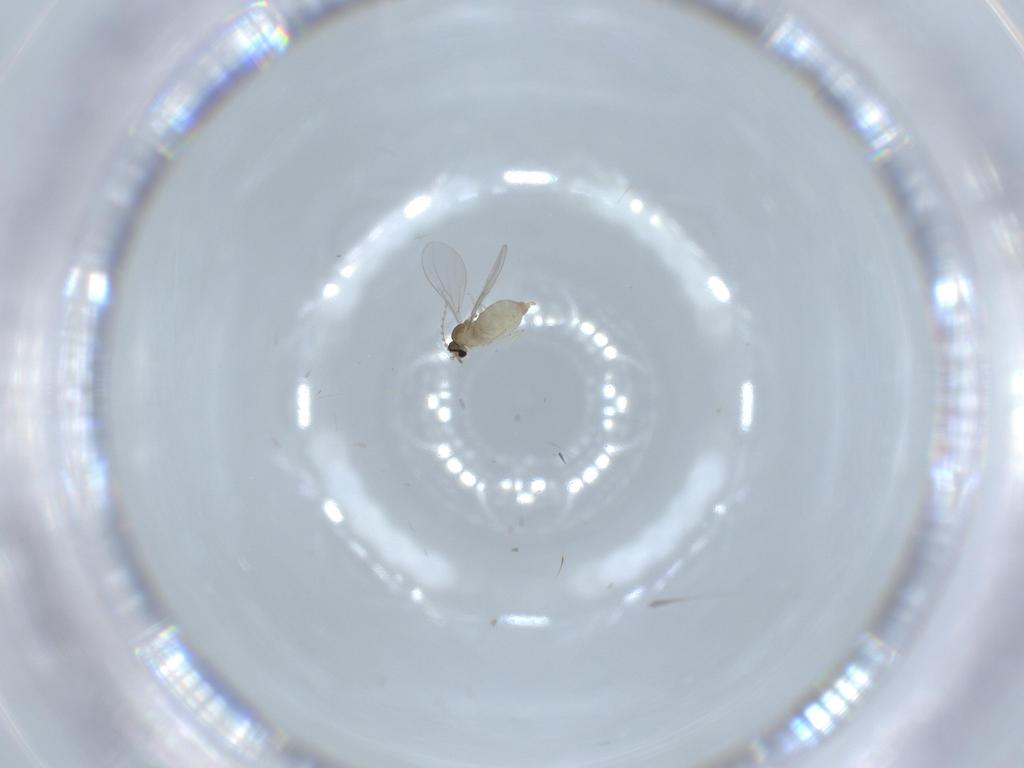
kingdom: Animalia
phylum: Arthropoda
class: Insecta
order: Diptera
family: Cecidomyiidae
